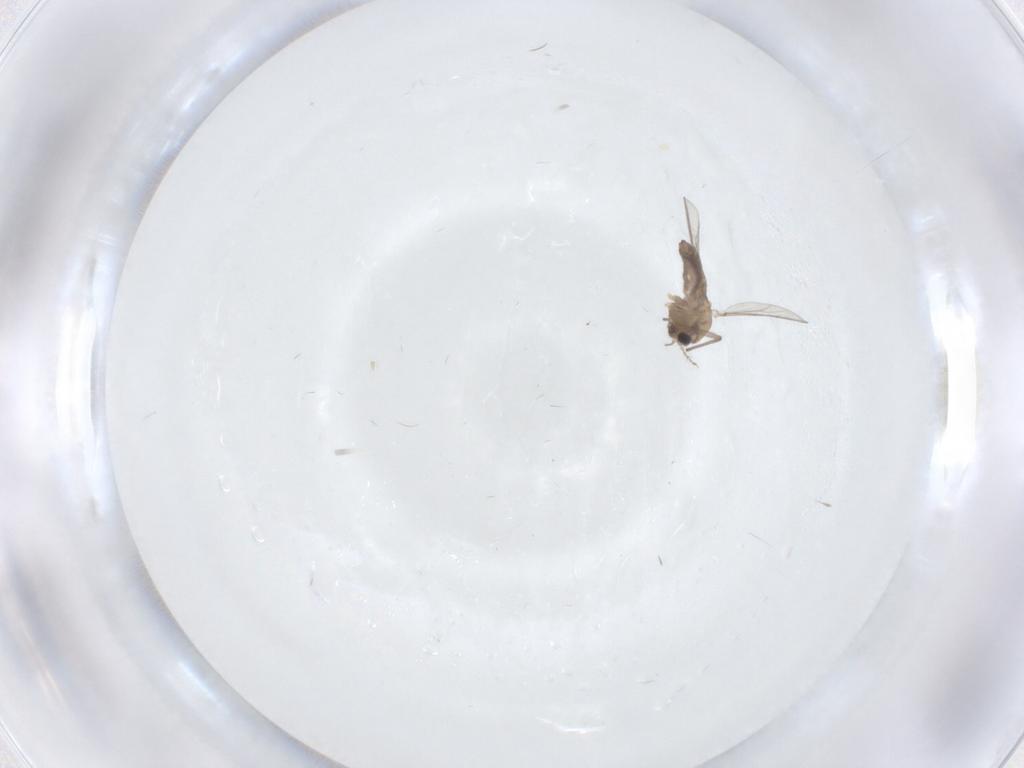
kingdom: Animalia
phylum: Arthropoda
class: Insecta
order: Diptera
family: Chironomidae
